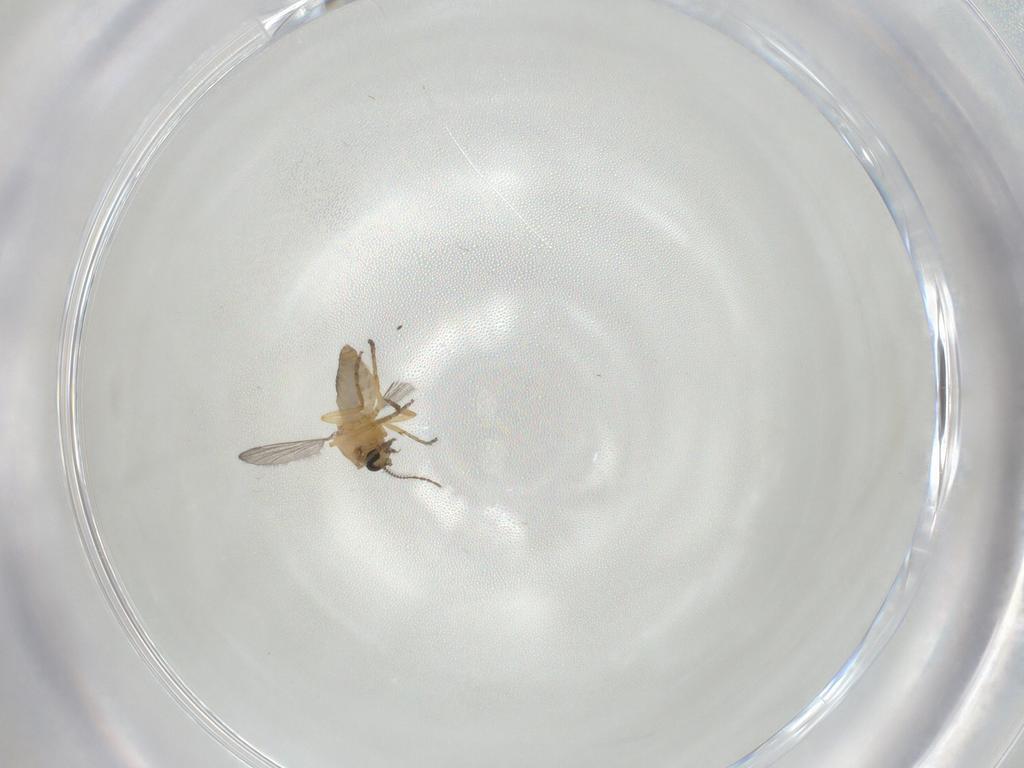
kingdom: Animalia
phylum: Arthropoda
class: Insecta
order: Diptera
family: Ceratopogonidae
